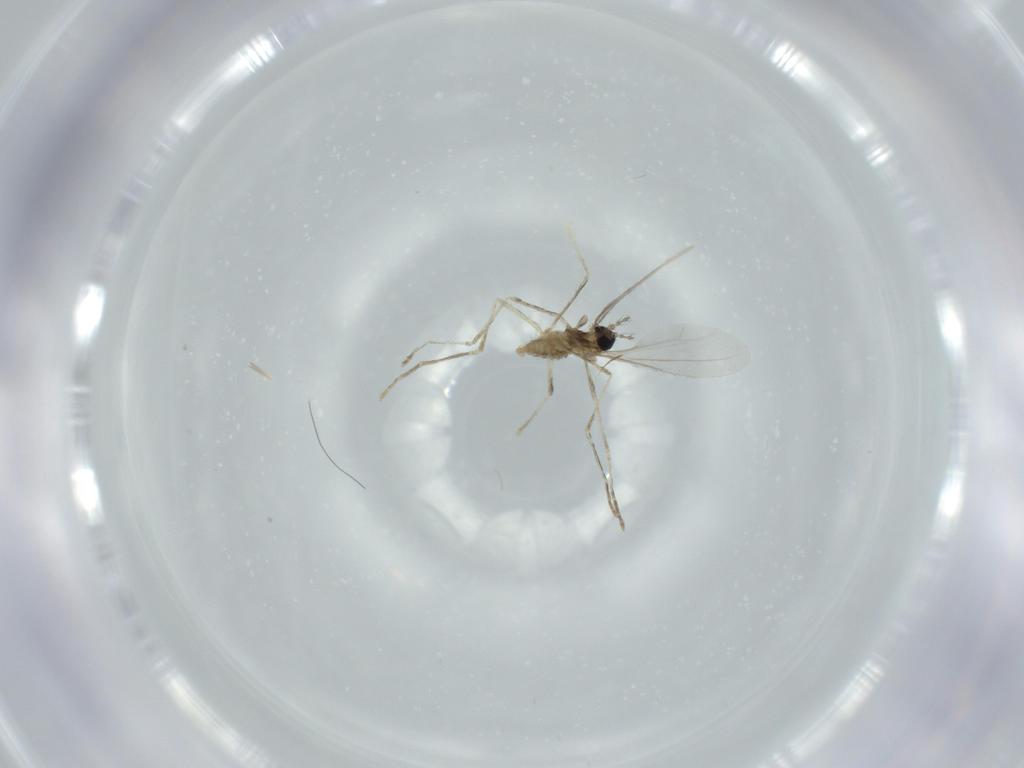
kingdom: Animalia
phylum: Arthropoda
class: Insecta
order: Diptera
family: Cecidomyiidae
